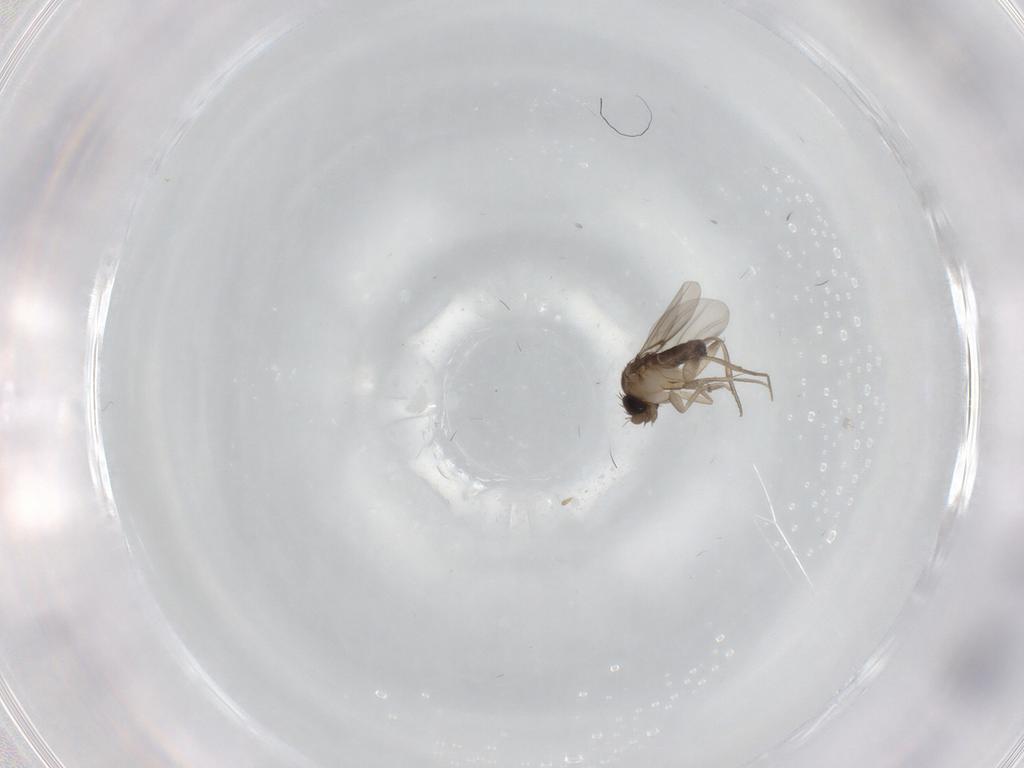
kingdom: Animalia
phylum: Arthropoda
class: Insecta
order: Diptera
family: Phoridae
